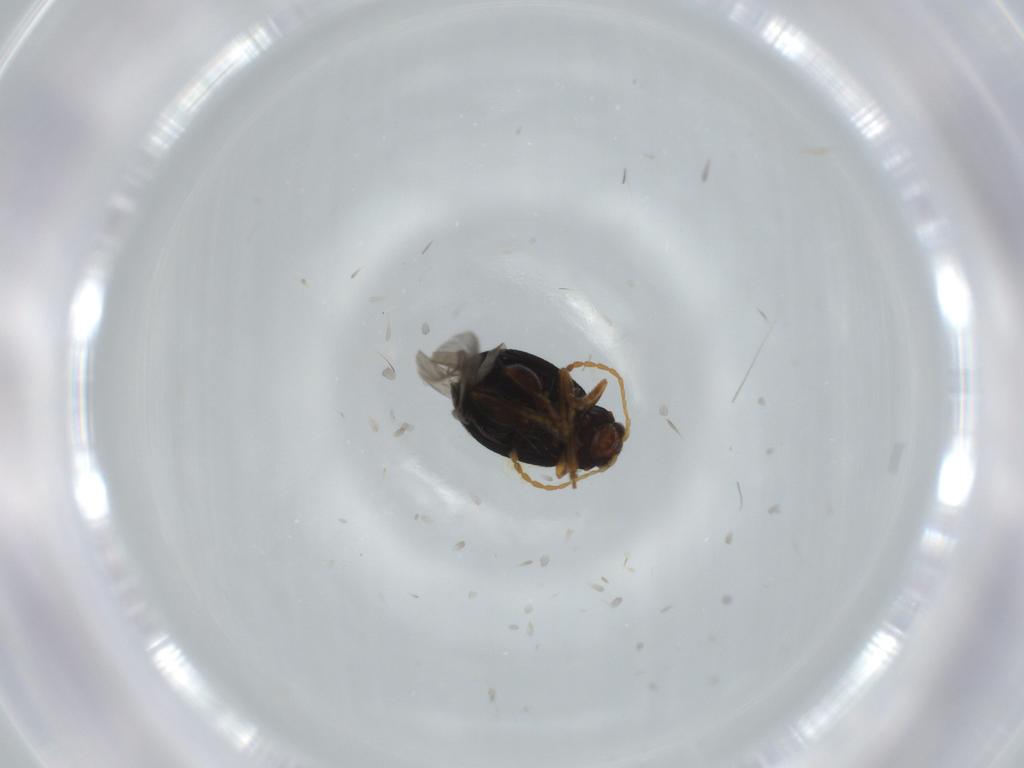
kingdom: Animalia
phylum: Arthropoda
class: Insecta
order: Coleoptera
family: Chrysomelidae
